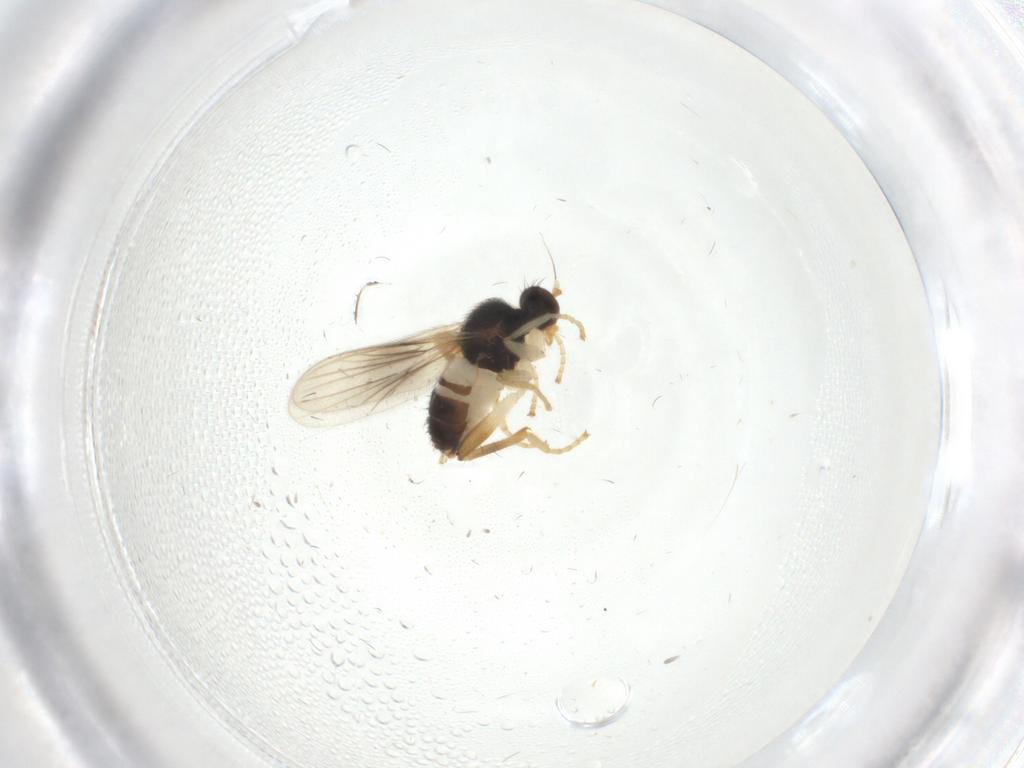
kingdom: Animalia
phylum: Arthropoda
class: Insecta
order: Diptera
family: Hybotidae
